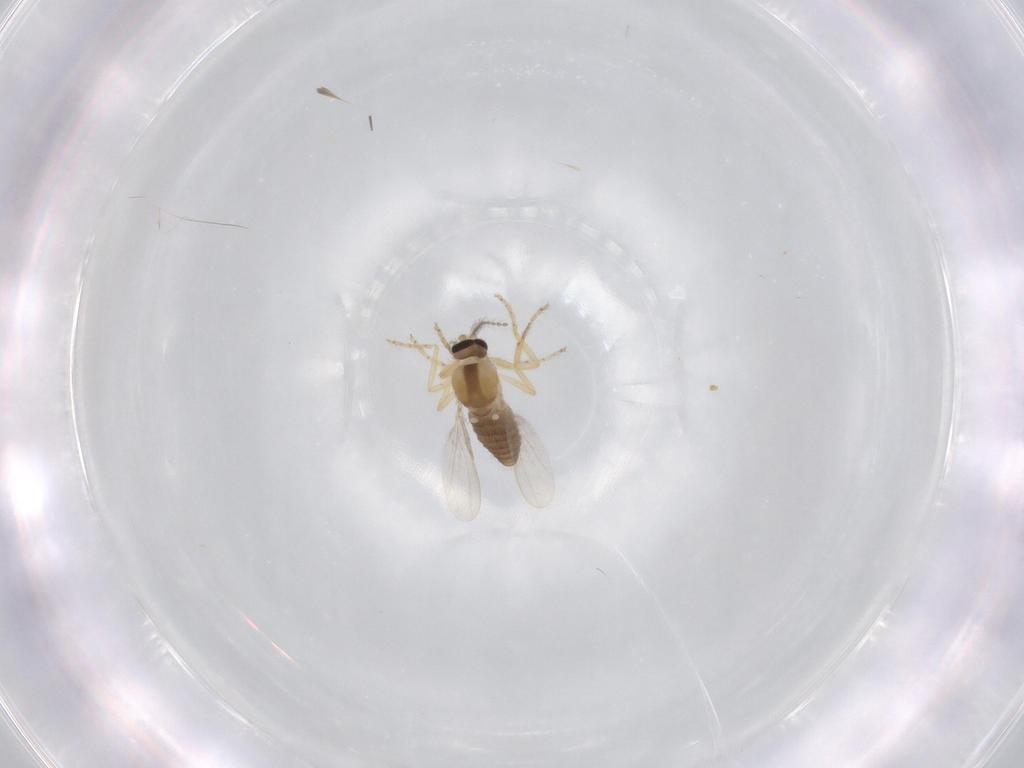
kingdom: Animalia
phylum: Arthropoda
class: Insecta
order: Diptera
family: Ceratopogonidae
